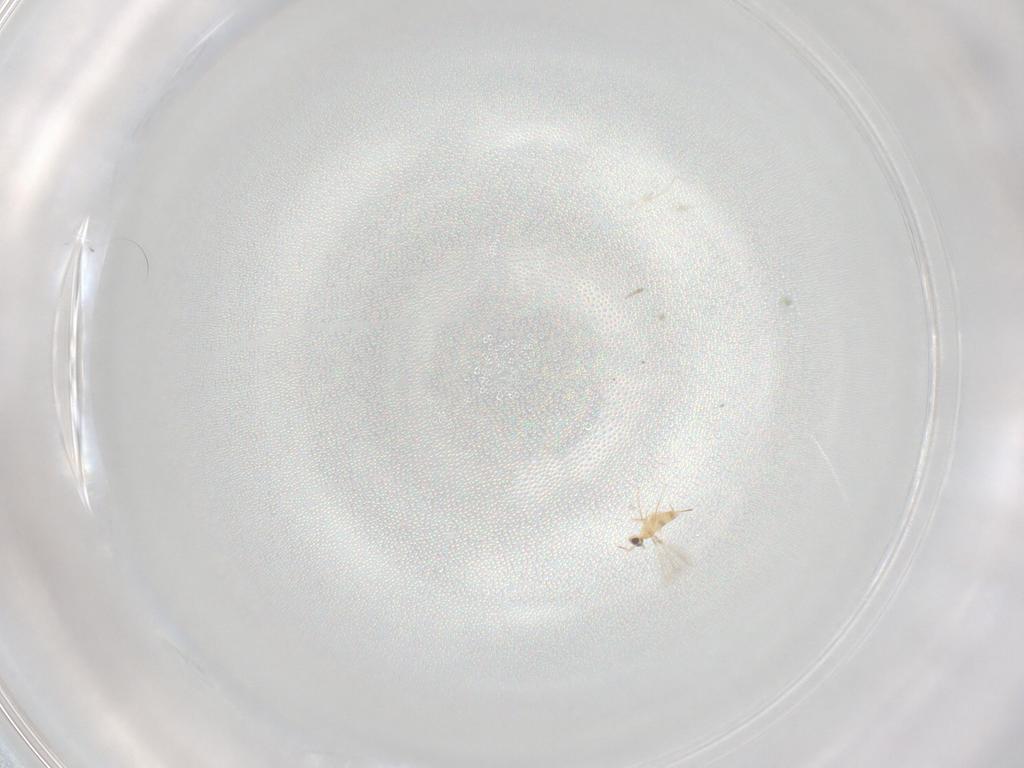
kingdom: Animalia
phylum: Arthropoda
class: Insecta
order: Hymenoptera
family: Mymaridae
